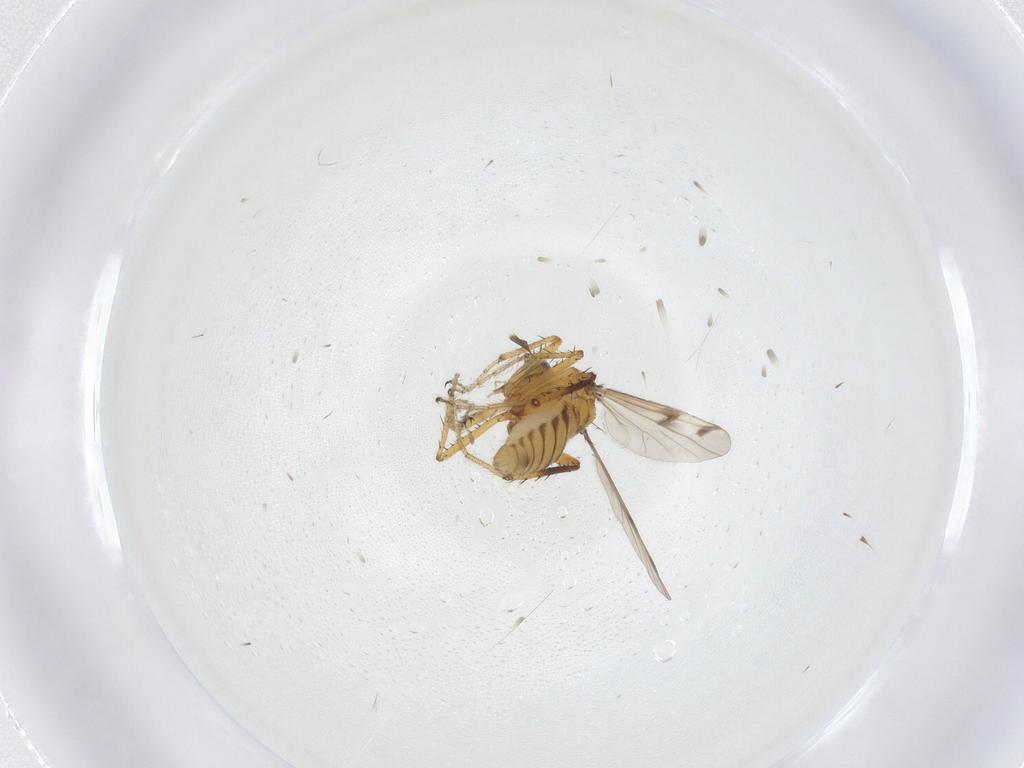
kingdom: Animalia
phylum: Arthropoda
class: Insecta
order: Diptera
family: Ceratopogonidae
